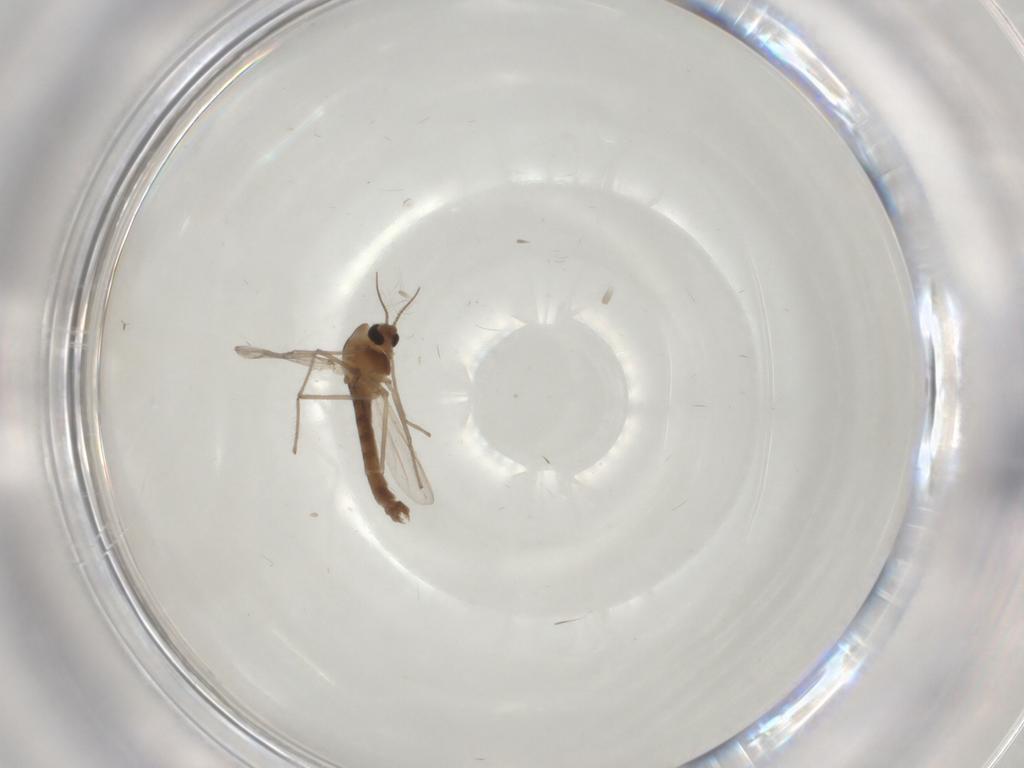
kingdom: Animalia
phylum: Arthropoda
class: Insecta
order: Diptera
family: Chironomidae
